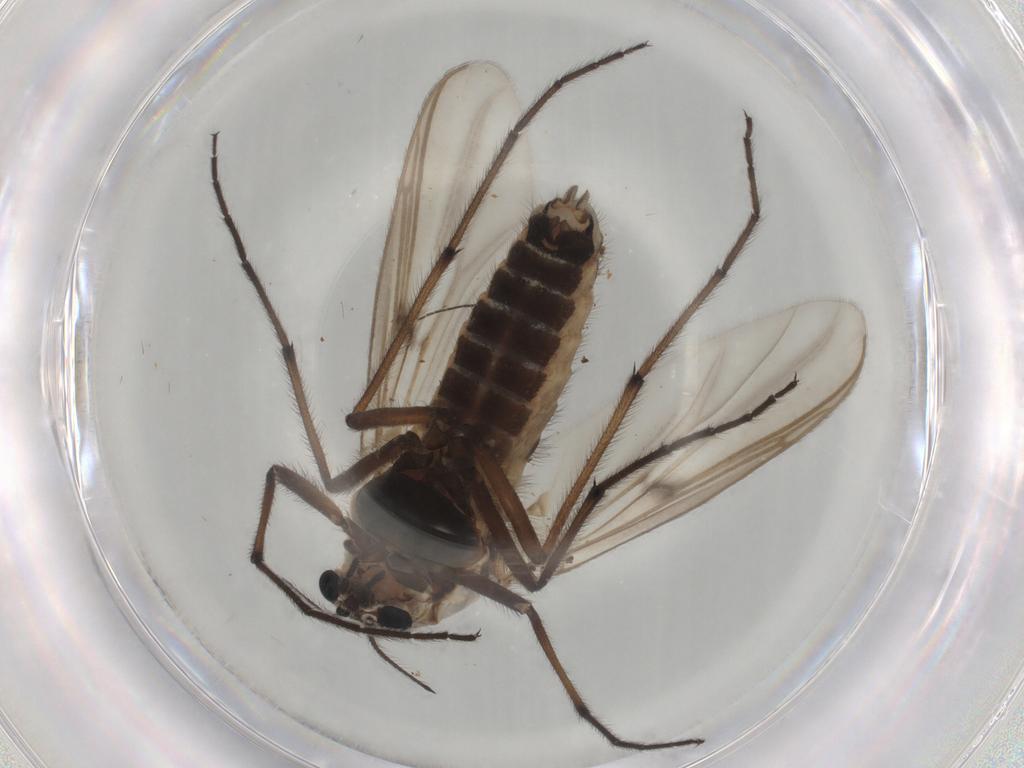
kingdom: Animalia
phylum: Arthropoda
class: Insecta
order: Diptera
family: Chironomidae
